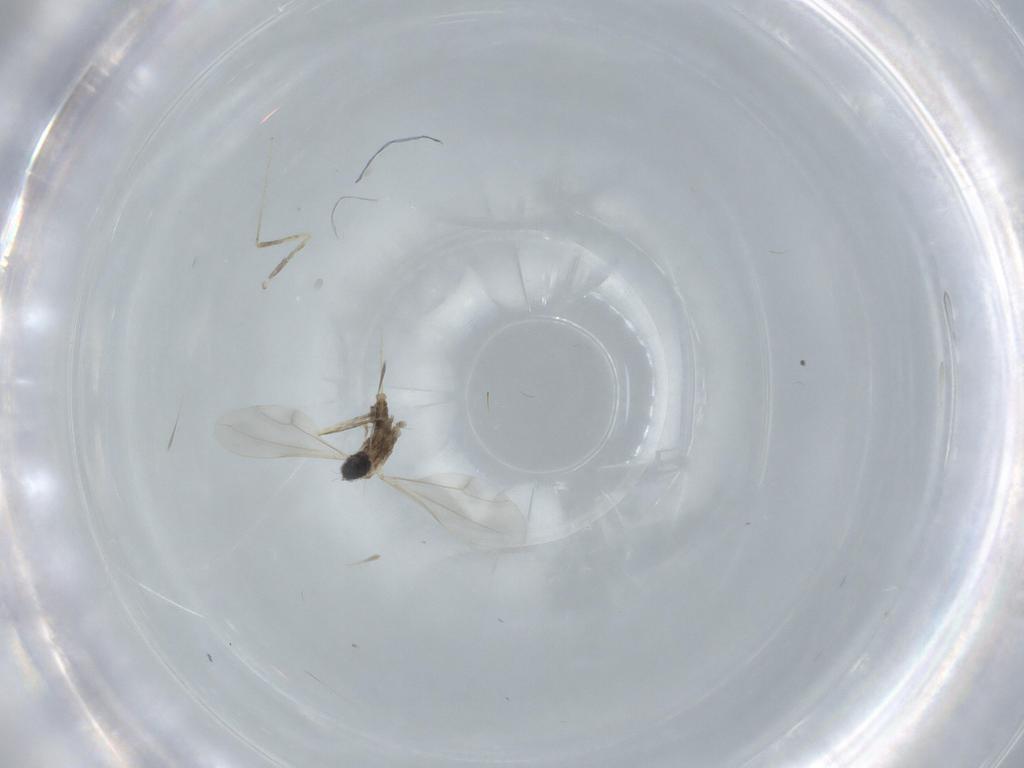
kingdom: Animalia
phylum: Arthropoda
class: Insecta
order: Diptera
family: Cecidomyiidae
